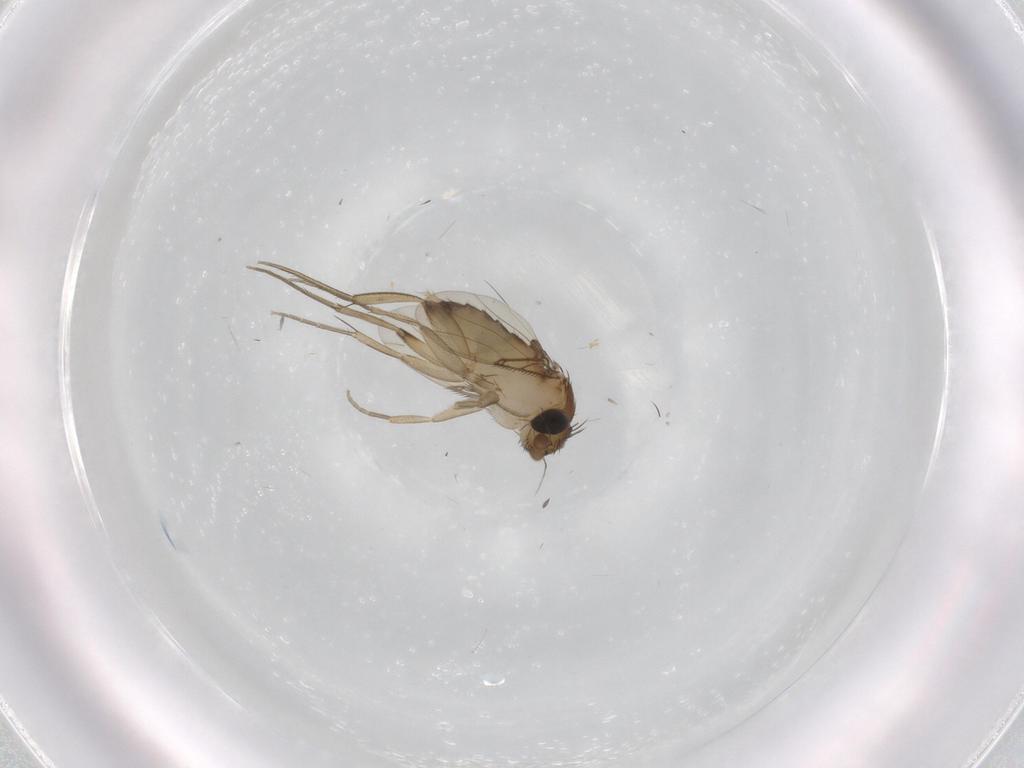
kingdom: Animalia
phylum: Arthropoda
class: Insecta
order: Diptera
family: Phoridae
